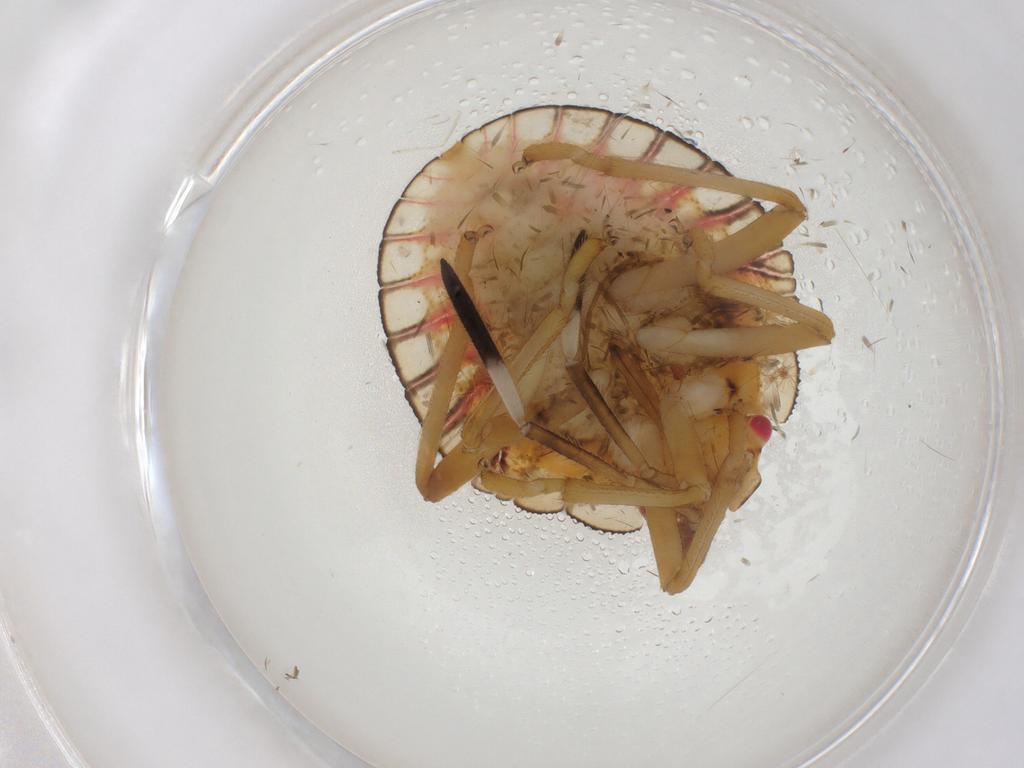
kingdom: Animalia
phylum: Arthropoda
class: Insecta
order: Hemiptera
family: Pentatomidae
